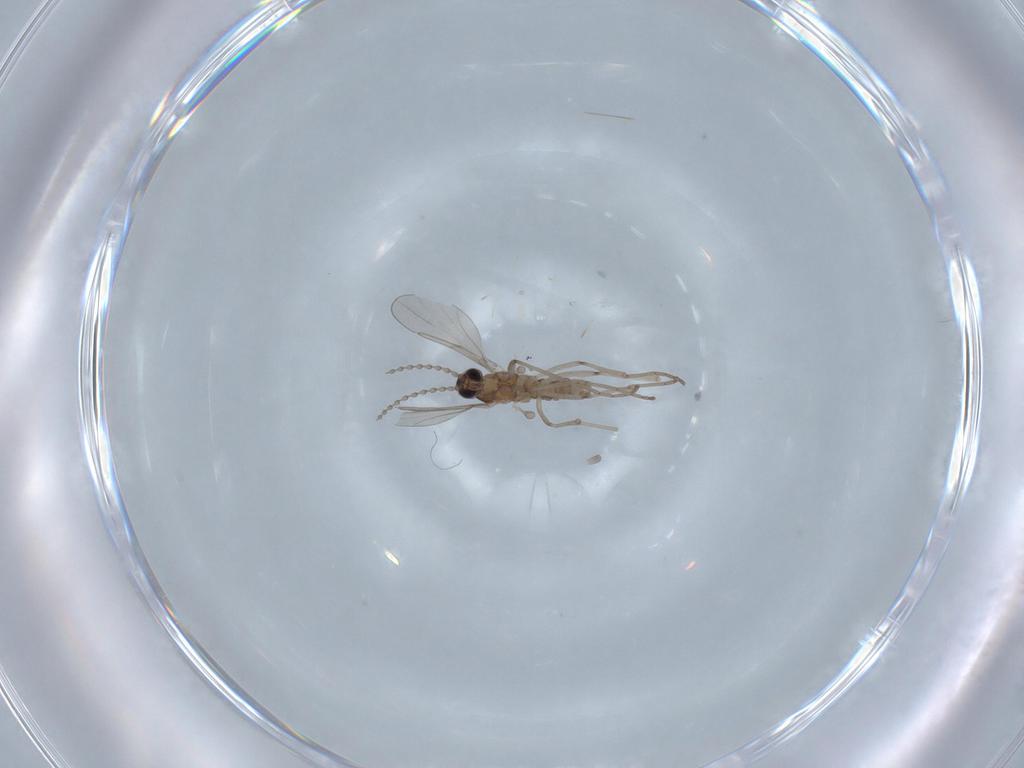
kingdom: Animalia
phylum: Arthropoda
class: Insecta
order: Diptera
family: Cecidomyiidae
